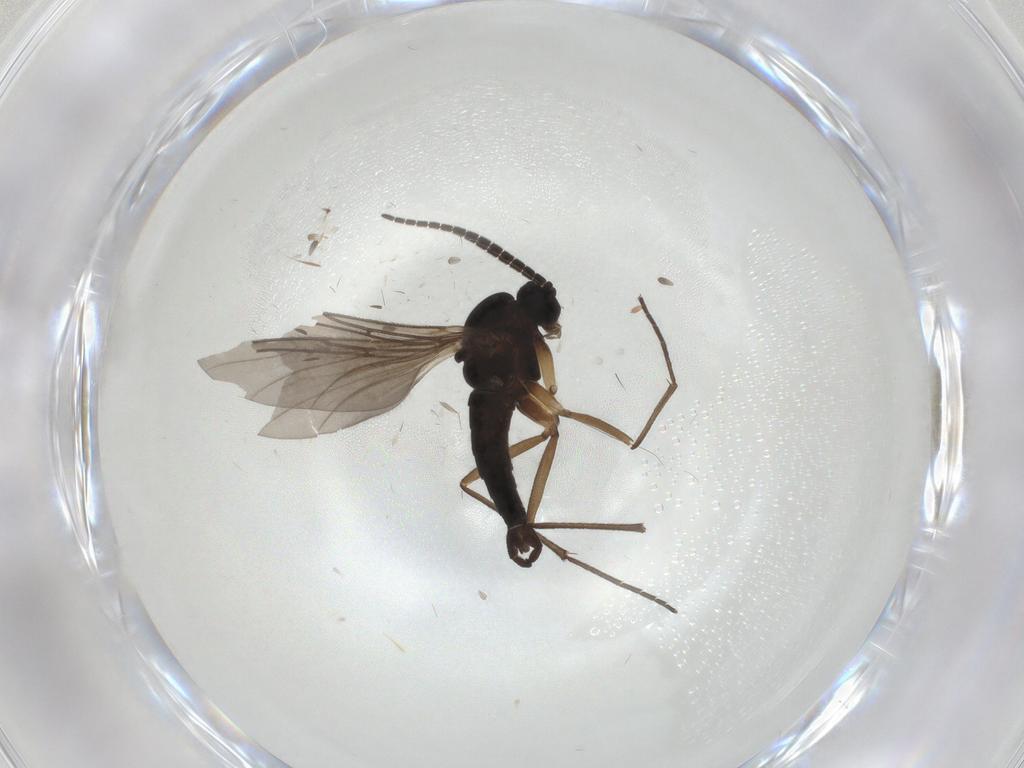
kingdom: Animalia
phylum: Arthropoda
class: Insecta
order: Diptera
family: Sciaridae
